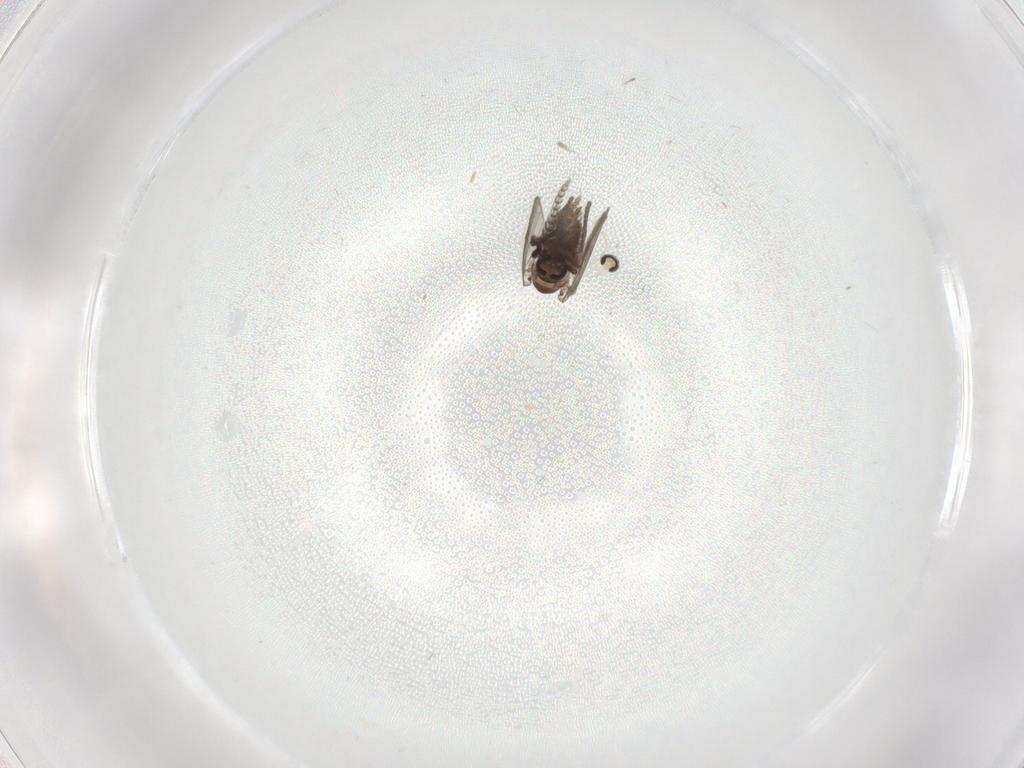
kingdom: Animalia
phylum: Arthropoda
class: Insecta
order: Diptera
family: Psychodidae
